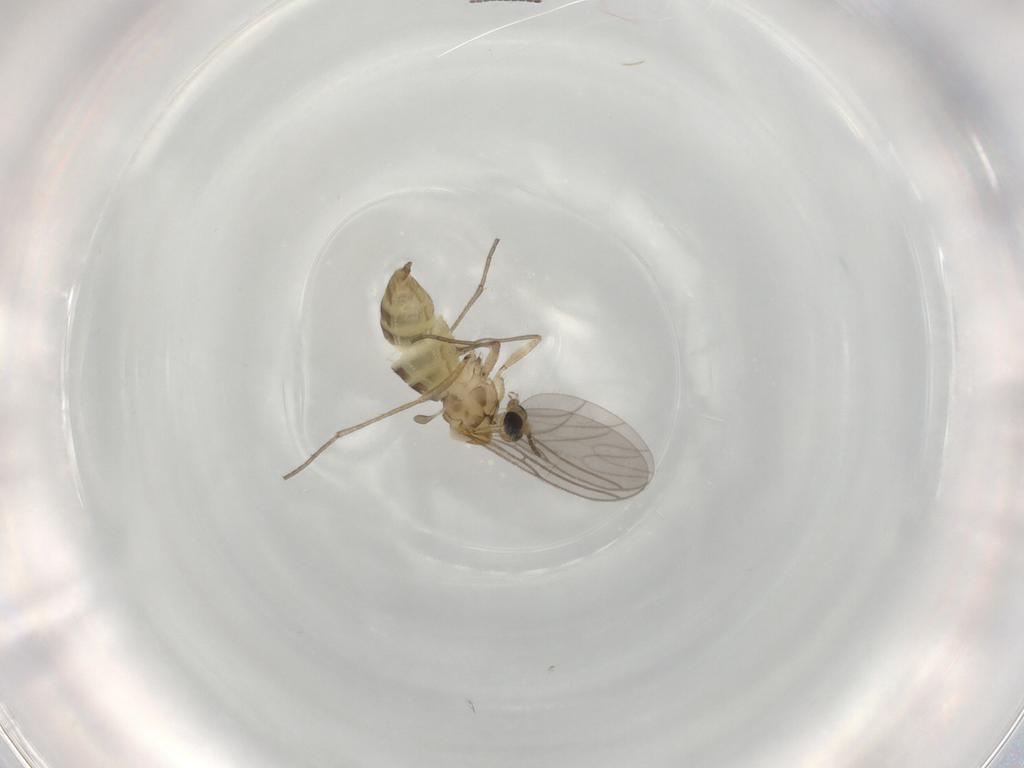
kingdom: Animalia
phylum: Arthropoda
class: Insecta
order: Diptera
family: Sciaridae
